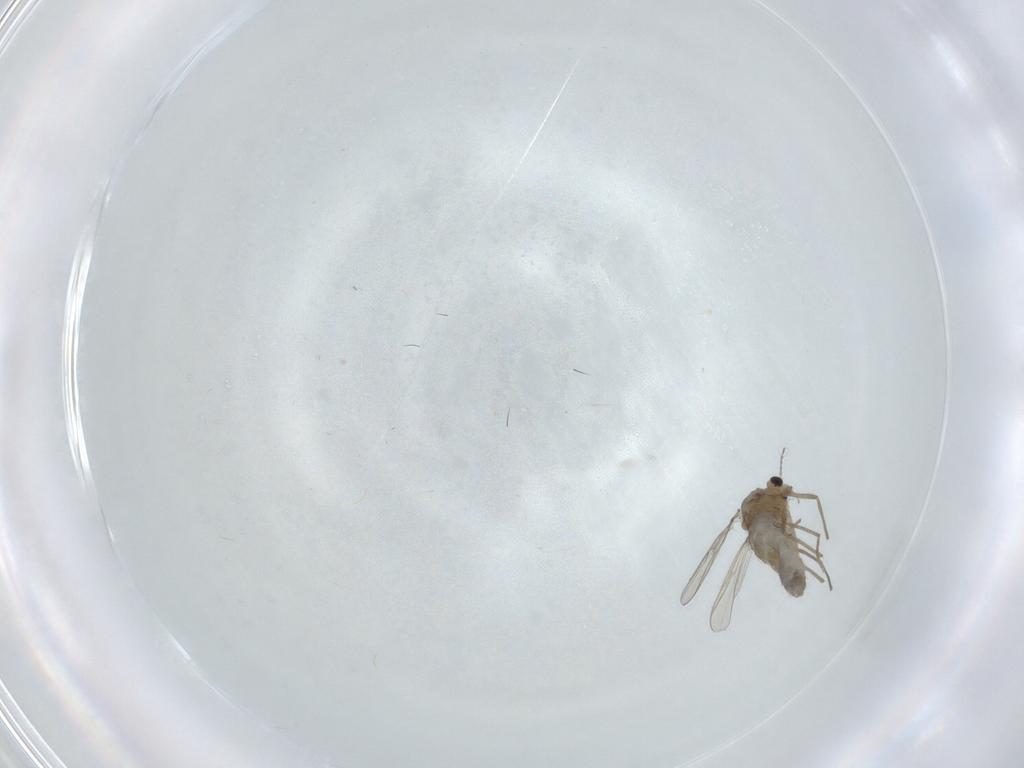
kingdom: Animalia
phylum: Arthropoda
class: Insecta
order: Diptera
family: Chironomidae
